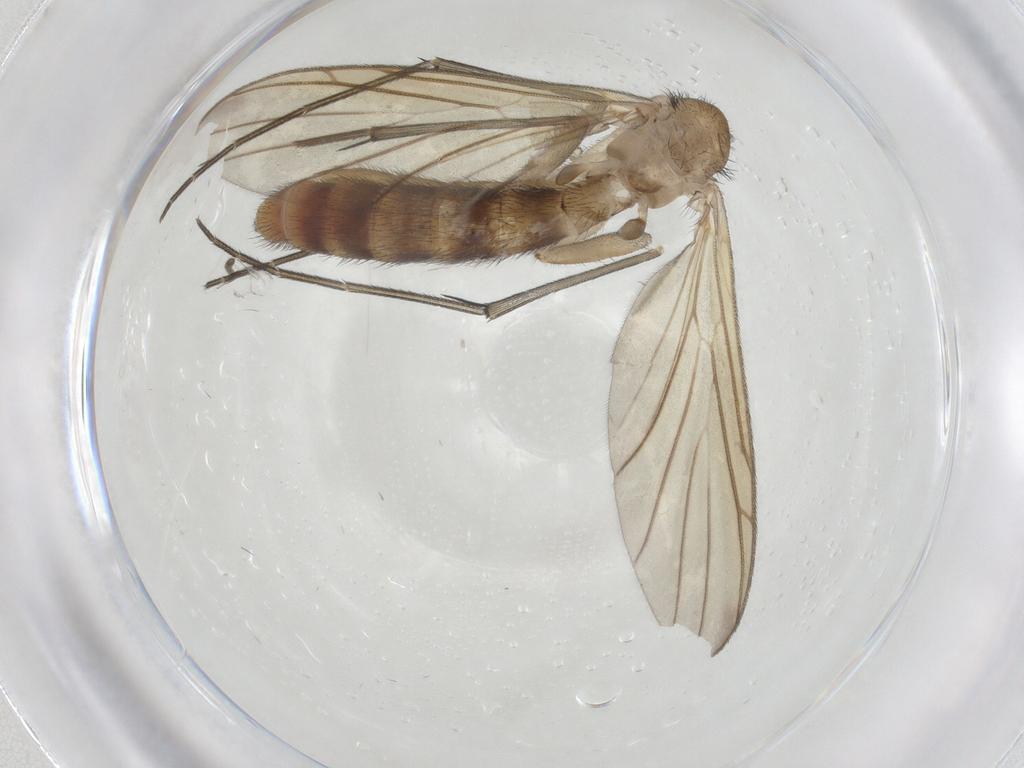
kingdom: Animalia
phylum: Arthropoda
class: Insecta
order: Diptera
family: Keroplatidae
